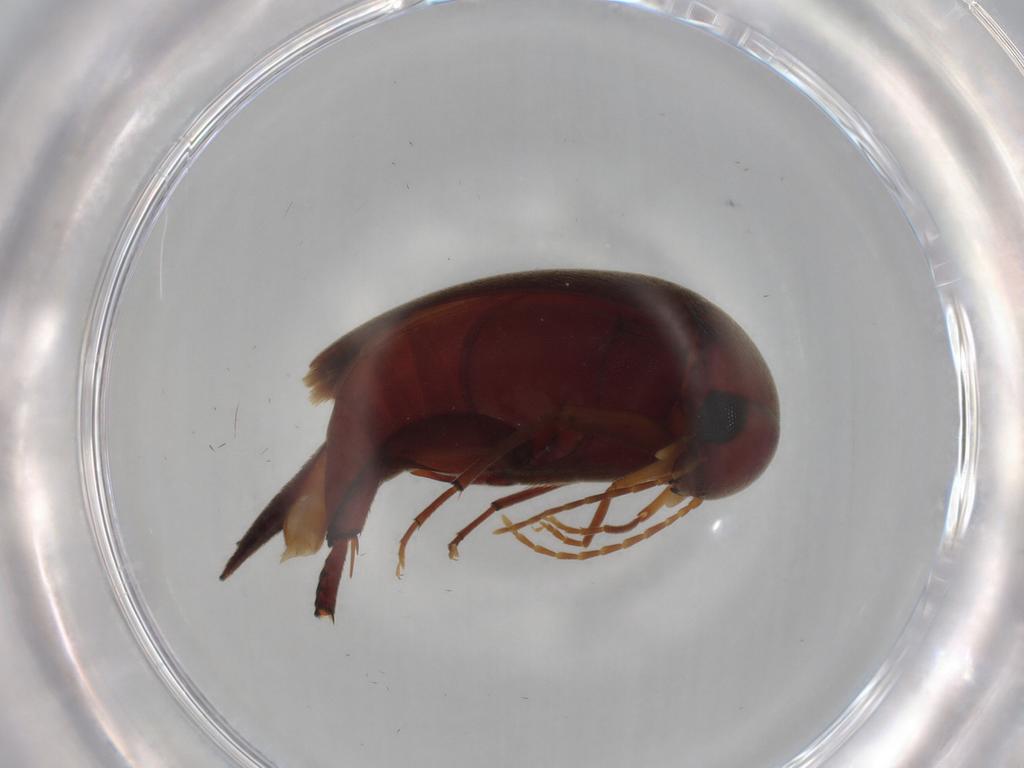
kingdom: Animalia
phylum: Arthropoda
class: Insecta
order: Coleoptera
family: Mordellidae
